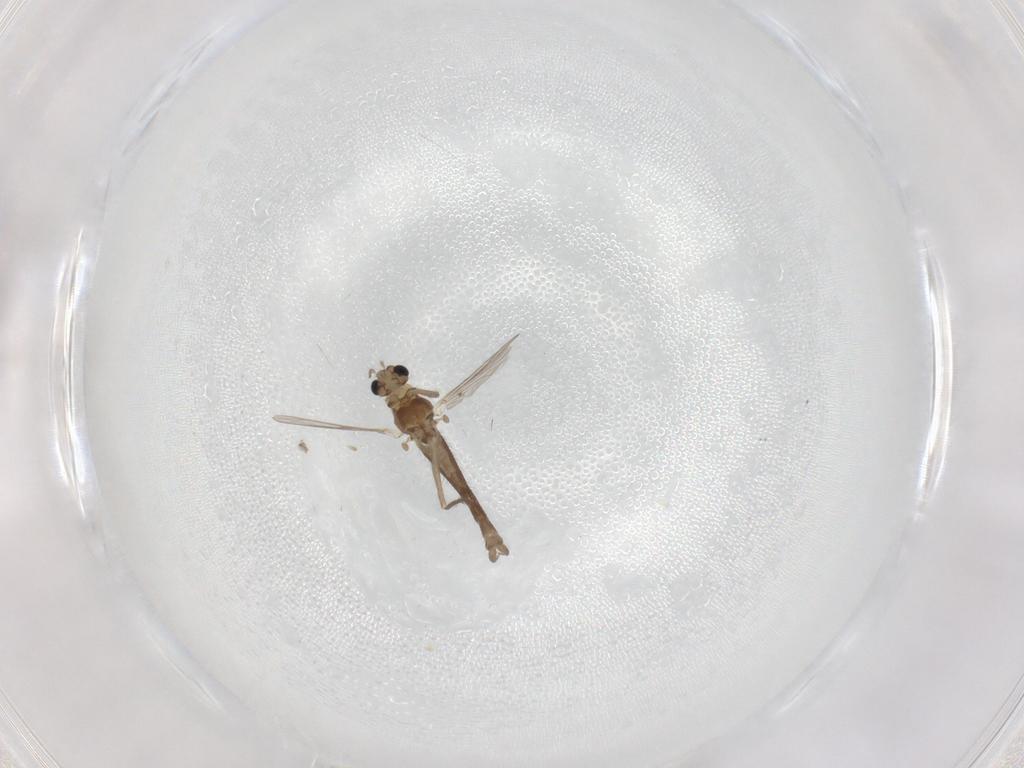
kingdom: Animalia
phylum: Arthropoda
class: Insecta
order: Diptera
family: Chironomidae
